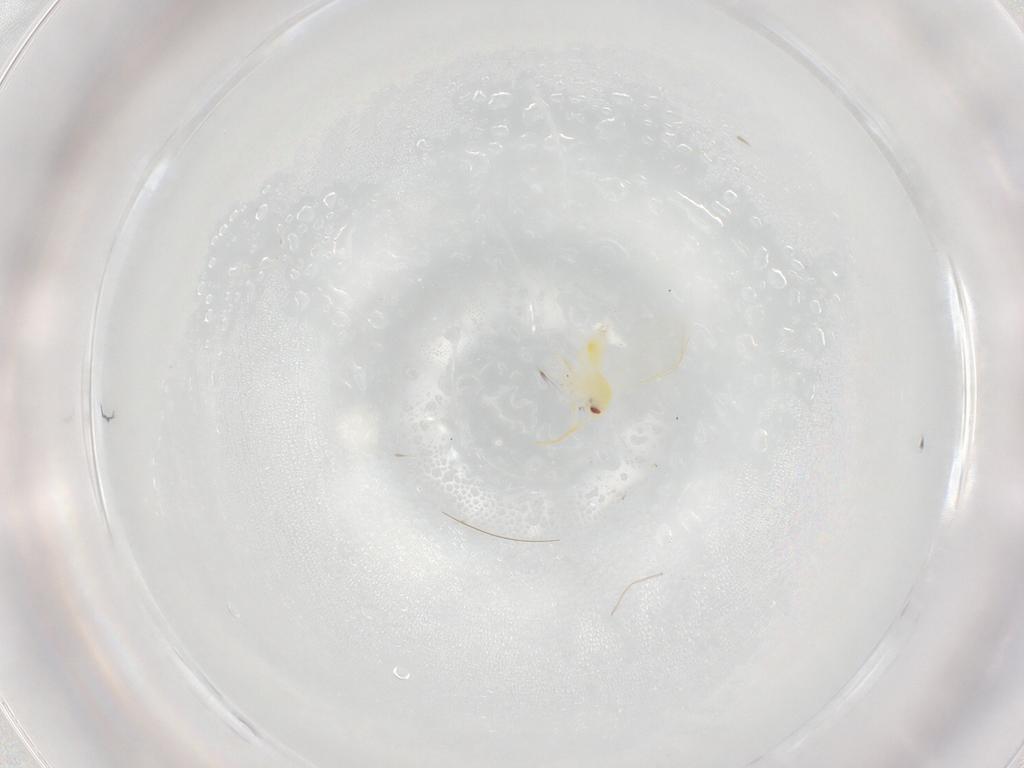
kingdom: Animalia
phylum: Arthropoda
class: Insecta
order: Hemiptera
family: Aleyrodidae
